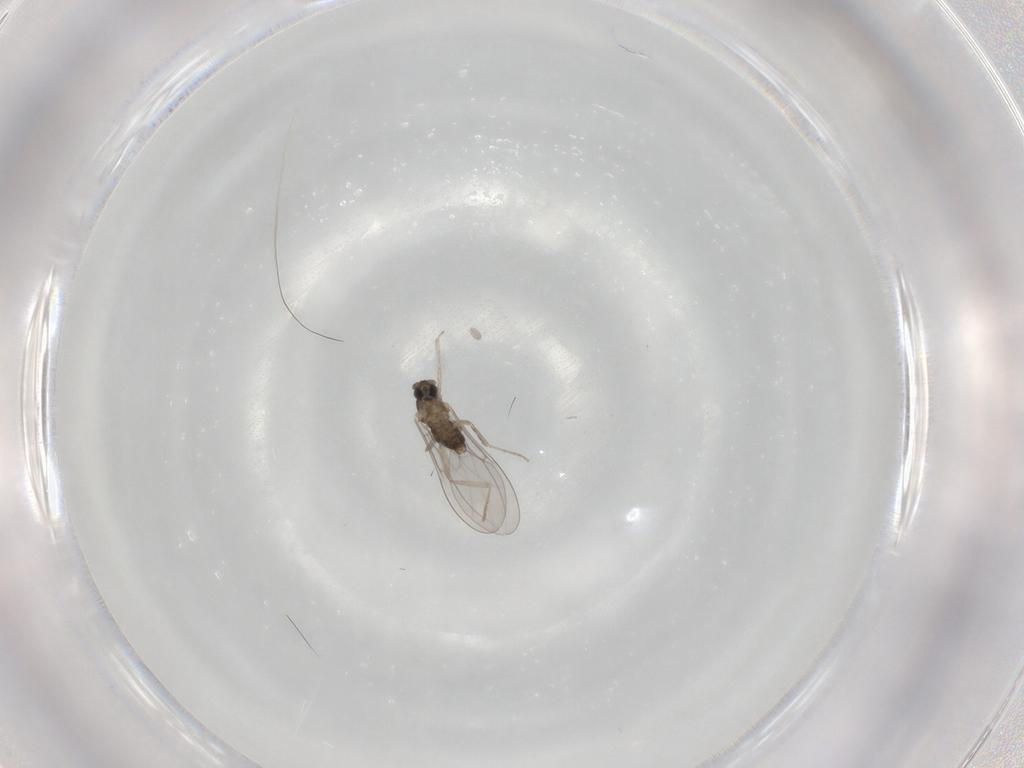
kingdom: Animalia
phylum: Arthropoda
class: Insecta
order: Diptera
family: Cecidomyiidae
